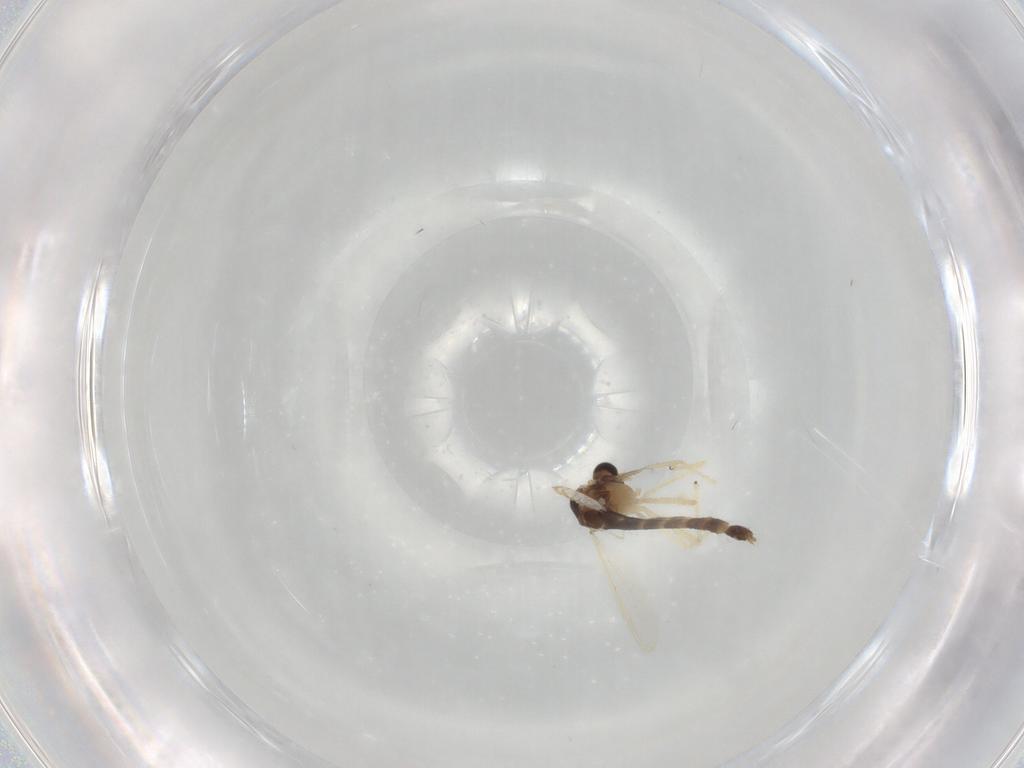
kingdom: Animalia
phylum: Arthropoda
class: Insecta
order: Diptera
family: Chironomidae
